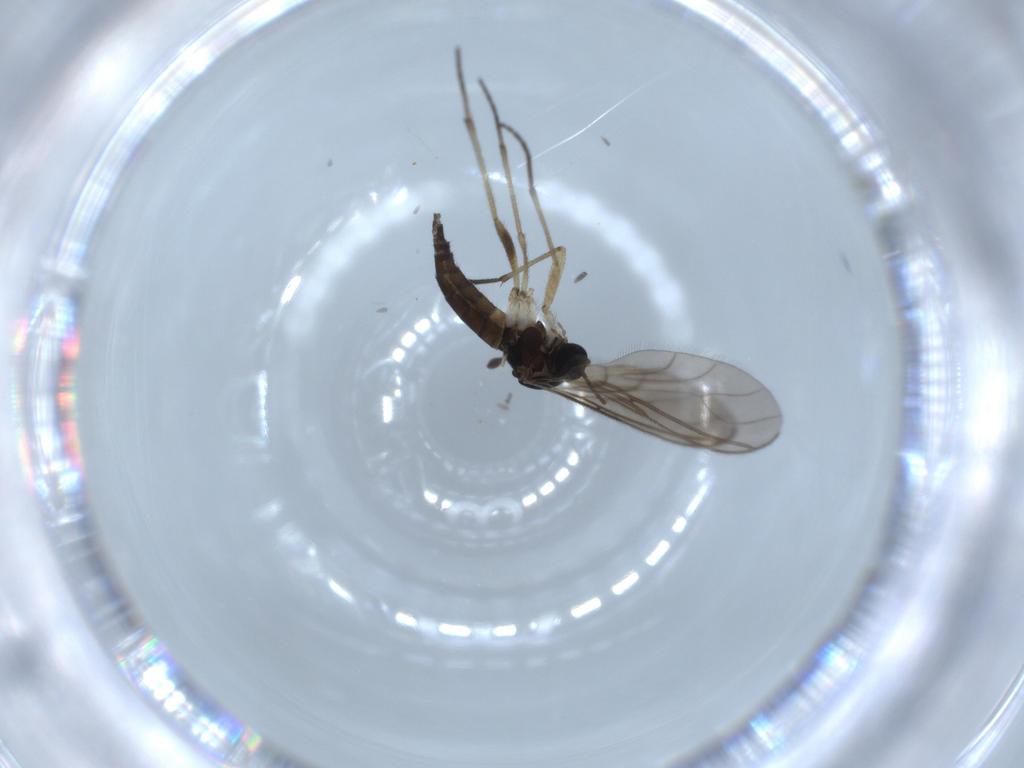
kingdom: Animalia
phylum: Arthropoda
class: Insecta
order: Diptera
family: Sciaridae
